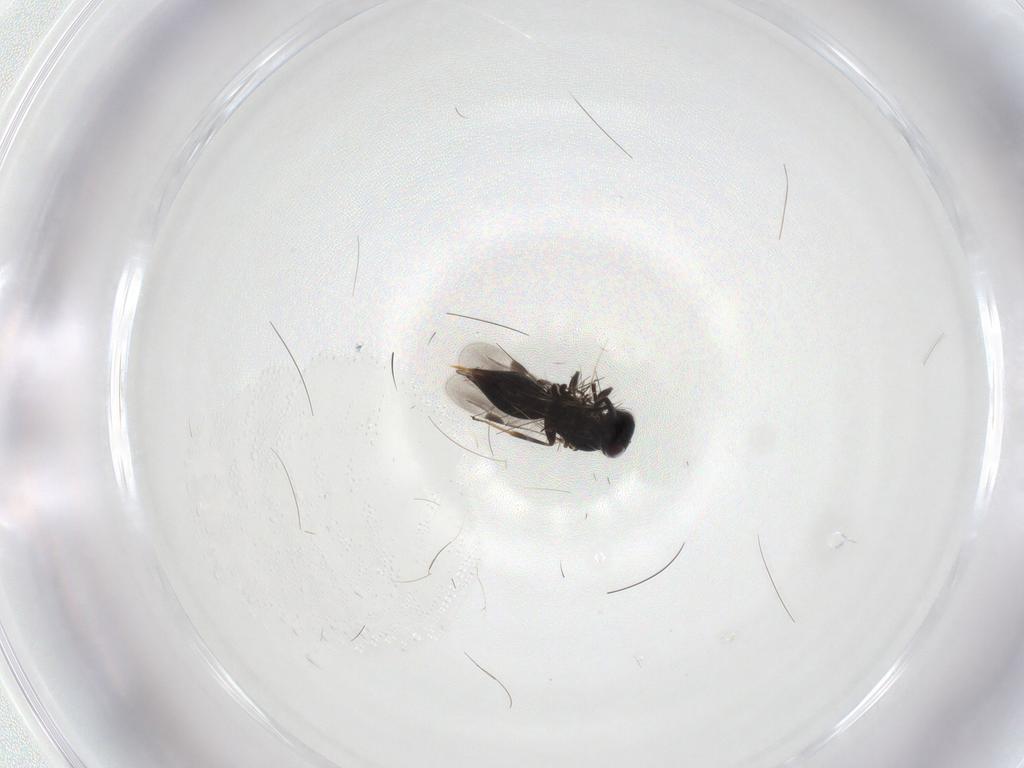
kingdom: Animalia
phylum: Arthropoda
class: Insecta
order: Hymenoptera
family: Megaspilidae
